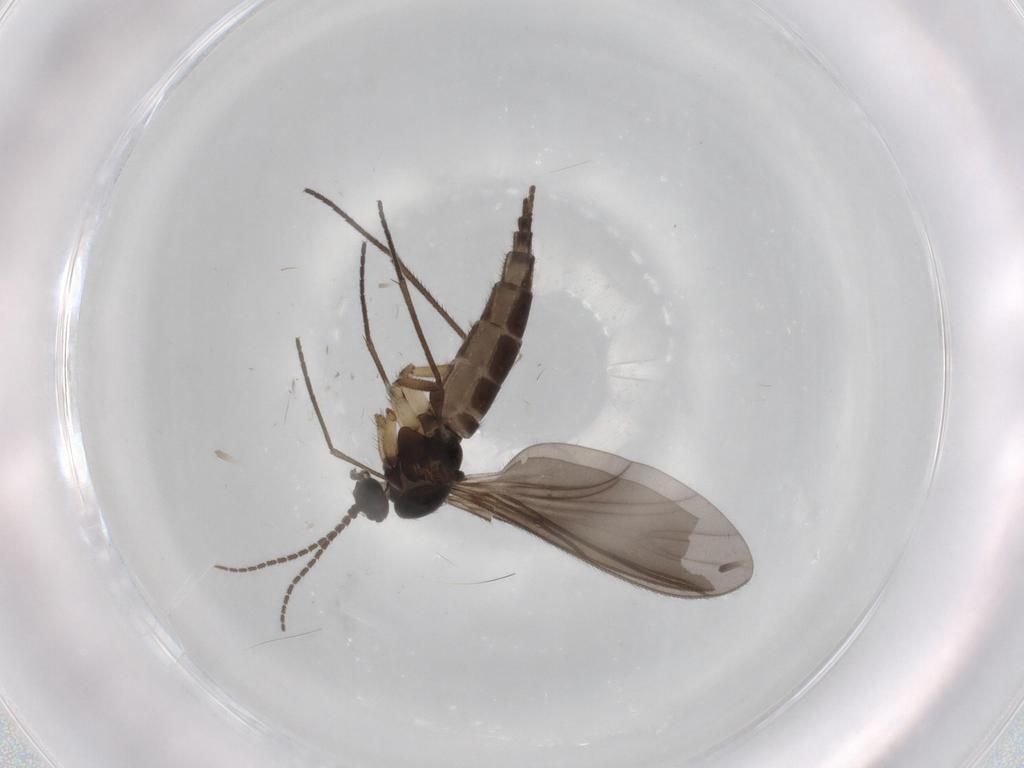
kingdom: Animalia
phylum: Arthropoda
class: Insecta
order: Diptera
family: Sciaridae
